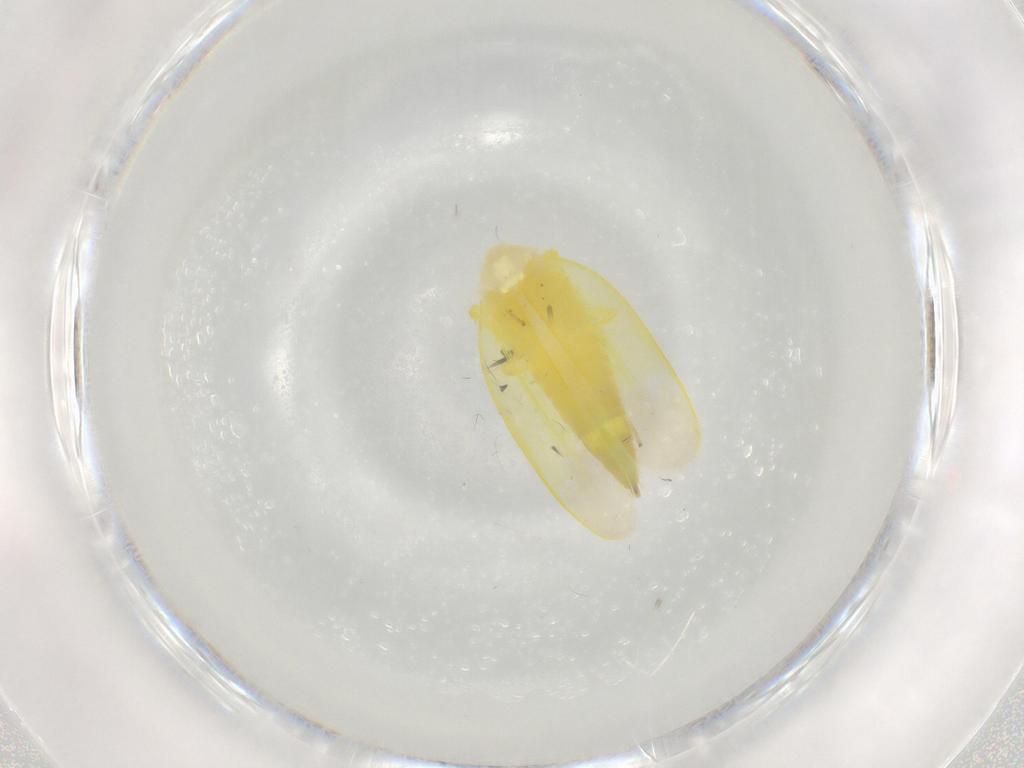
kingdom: Animalia
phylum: Arthropoda
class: Insecta
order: Hemiptera
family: Cicadellidae
